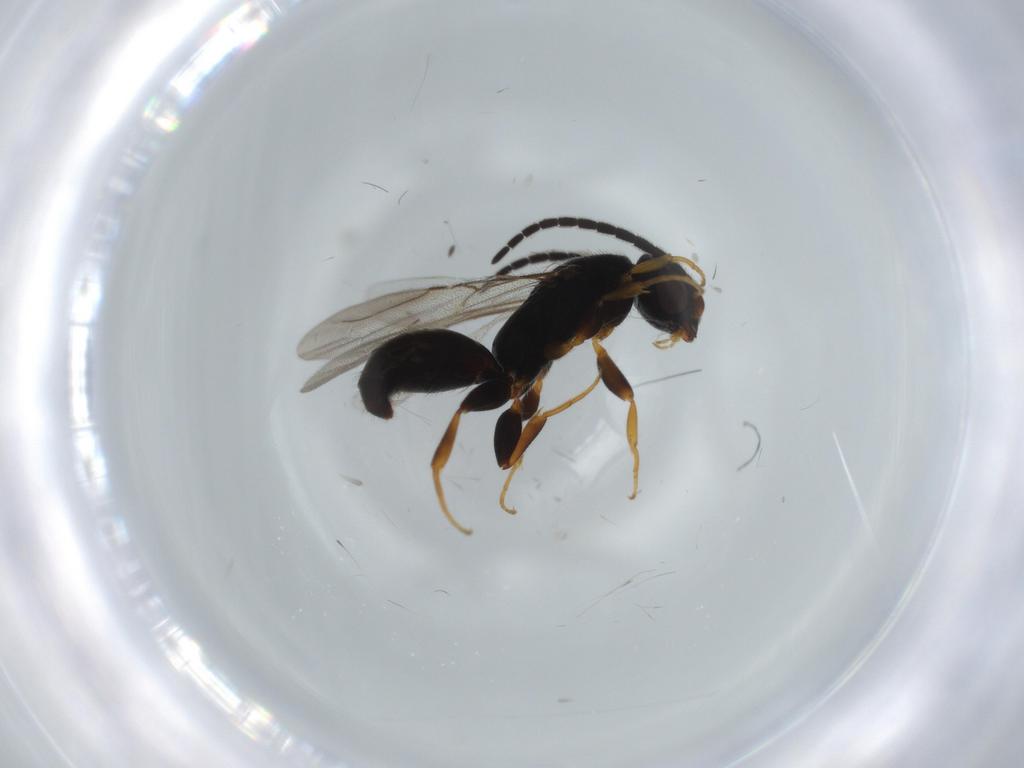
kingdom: Animalia
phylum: Arthropoda
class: Insecta
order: Hymenoptera
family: Bethylidae
